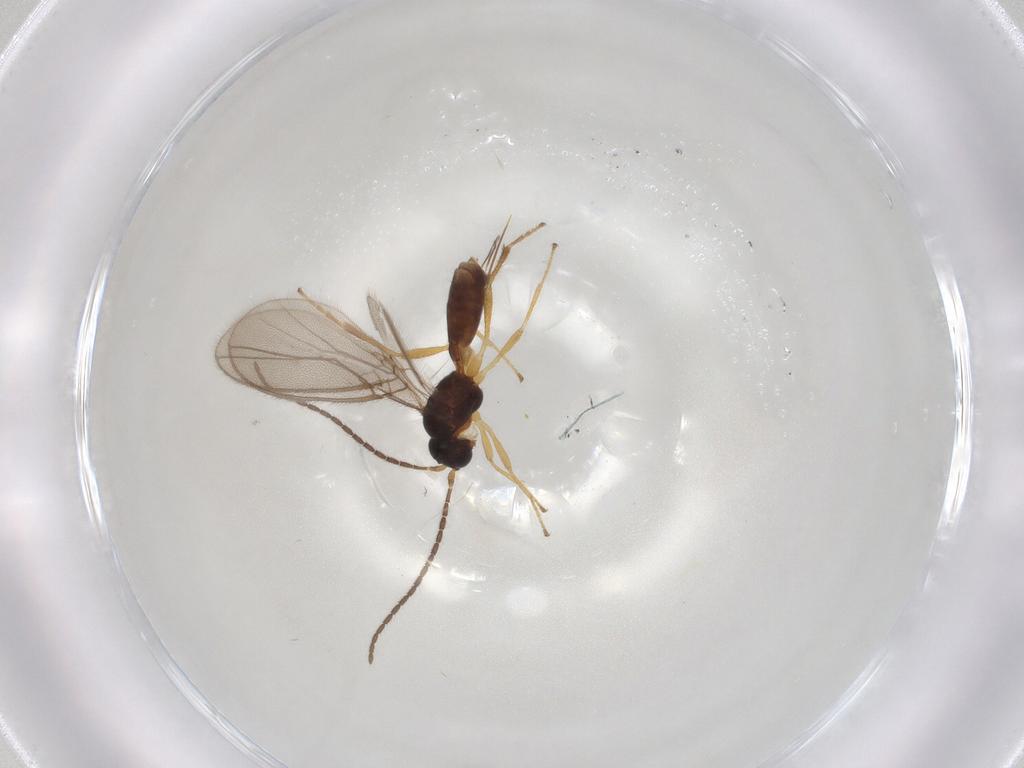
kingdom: Animalia
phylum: Arthropoda
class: Insecta
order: Hymenoptera
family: Braconidae
